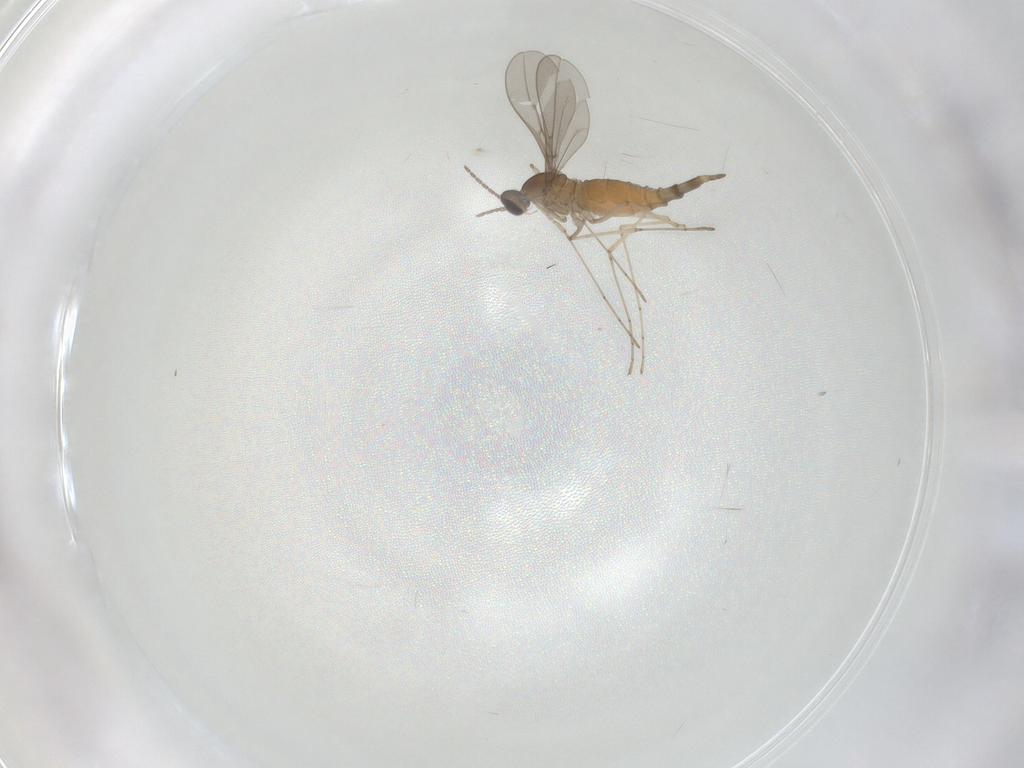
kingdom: Animalia
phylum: Arthropoda
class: Insecta
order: Diptera
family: Cecidomyiidae
